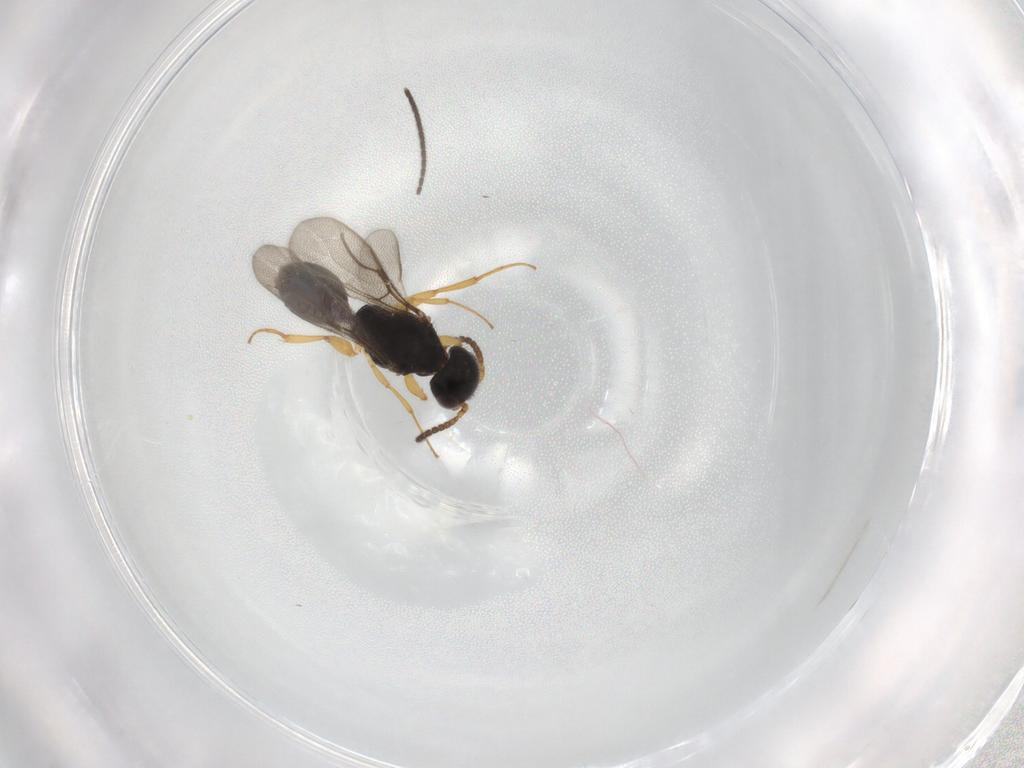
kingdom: Animalia
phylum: Arthropoda
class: Insecta
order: Hymenoptera
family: Bethylidae
